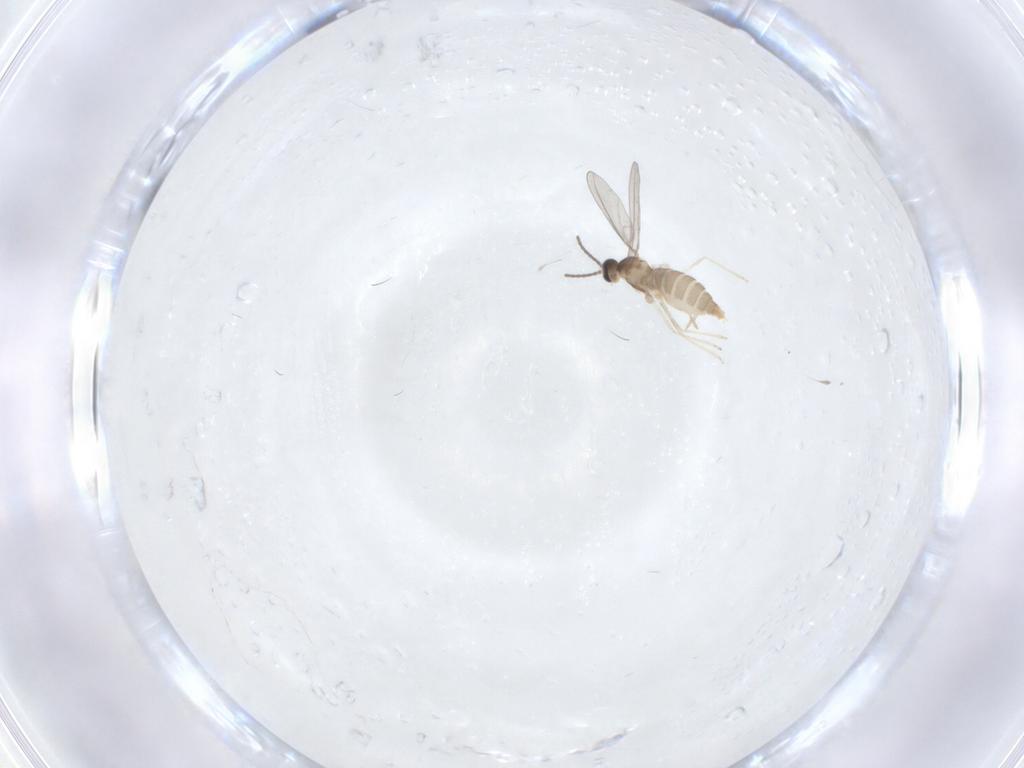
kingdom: Animalia
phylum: Arthropoda
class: Insecta
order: Diptera
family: Cecidomyiidae
